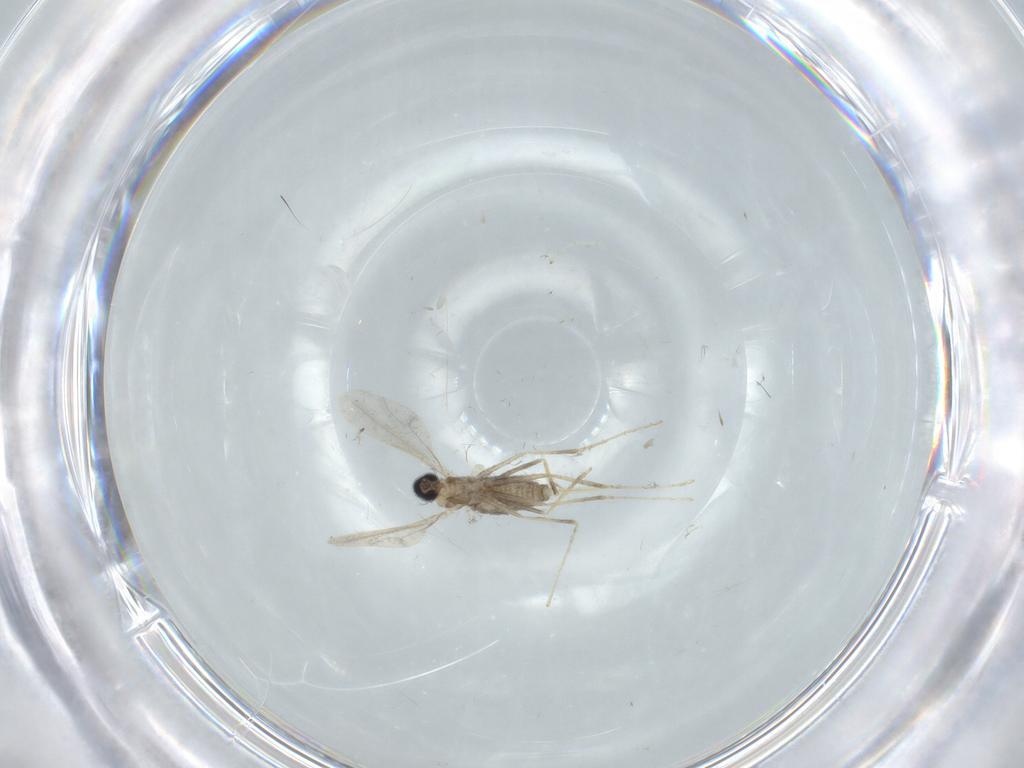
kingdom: Animalia
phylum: Arthropoda
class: Insecta
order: Diptera
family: Cecidomyiidae
